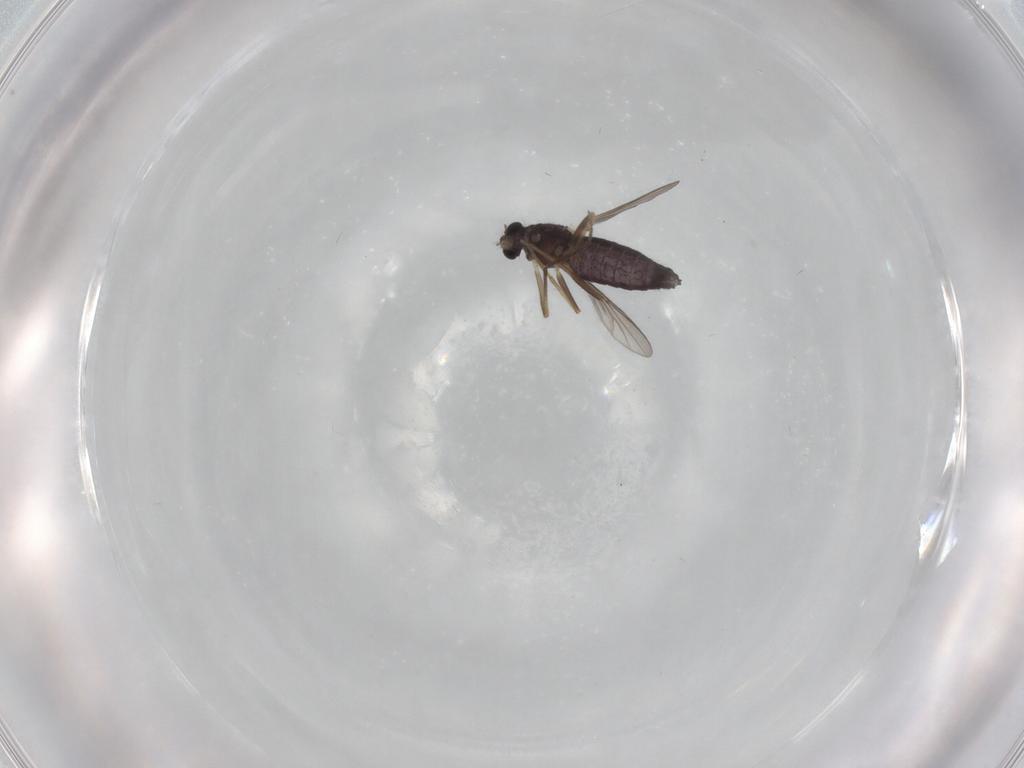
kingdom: Animalia
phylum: Arthropoda
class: Insecta
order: Diptera
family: Chironomidae
